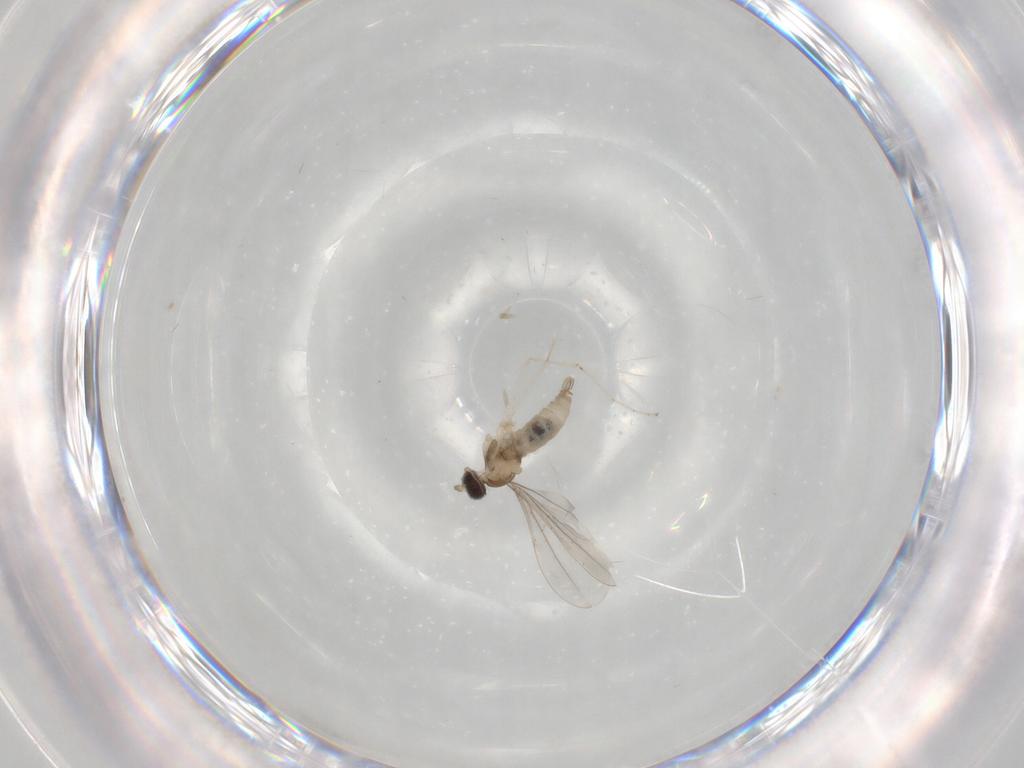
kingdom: Animalia
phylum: Arthropoda
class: Insecta
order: Diptera
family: Cecidomyiidae
